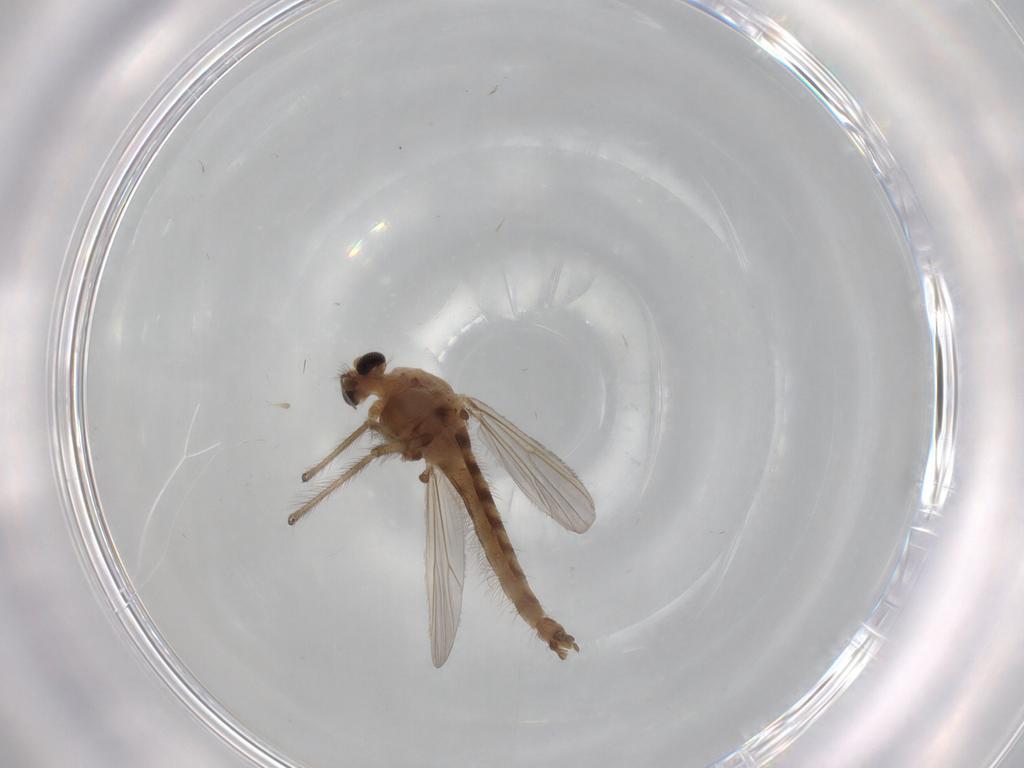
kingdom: Animalia
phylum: Arthropoda
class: Insecta
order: Diptera
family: Chironomidae
